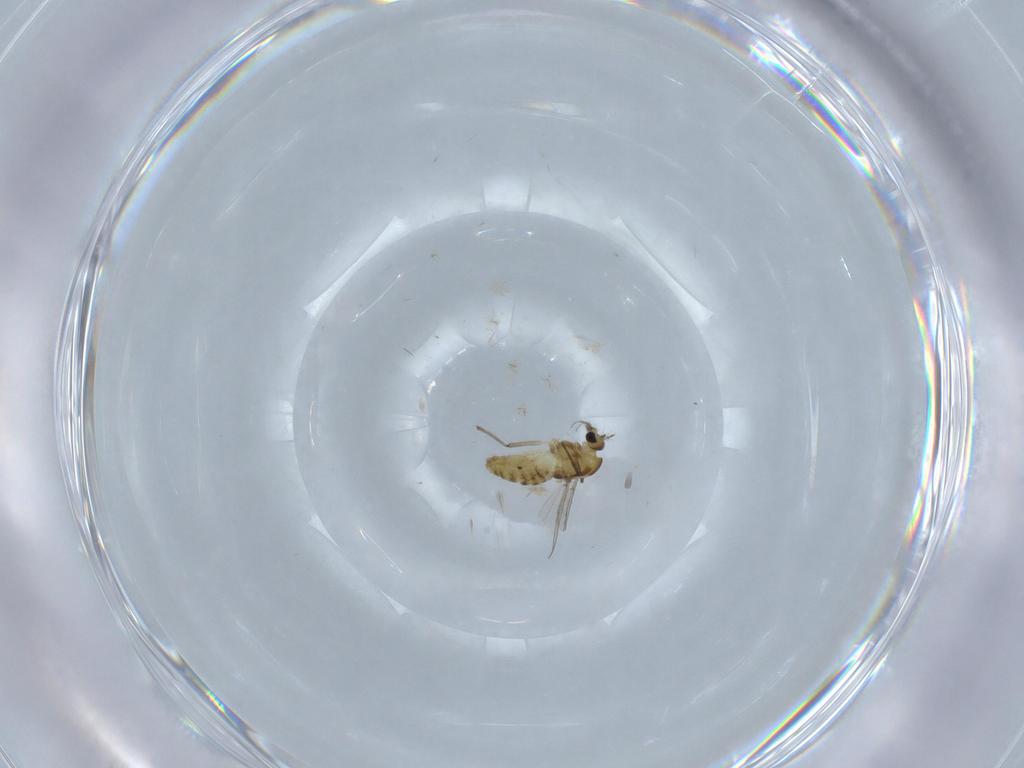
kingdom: Animalia
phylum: Arthropoda
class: Insecta
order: Diptera
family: Chironomidae
